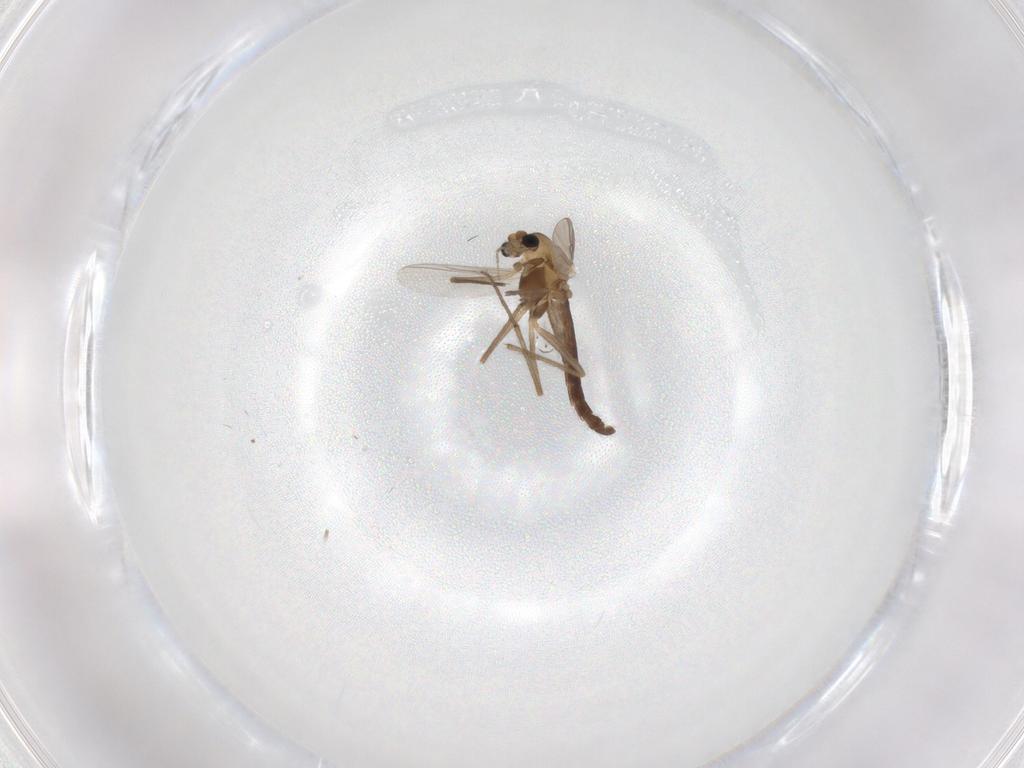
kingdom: Animalia
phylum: Arthropoda
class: Insecta
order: Diptera
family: Chironomidae
